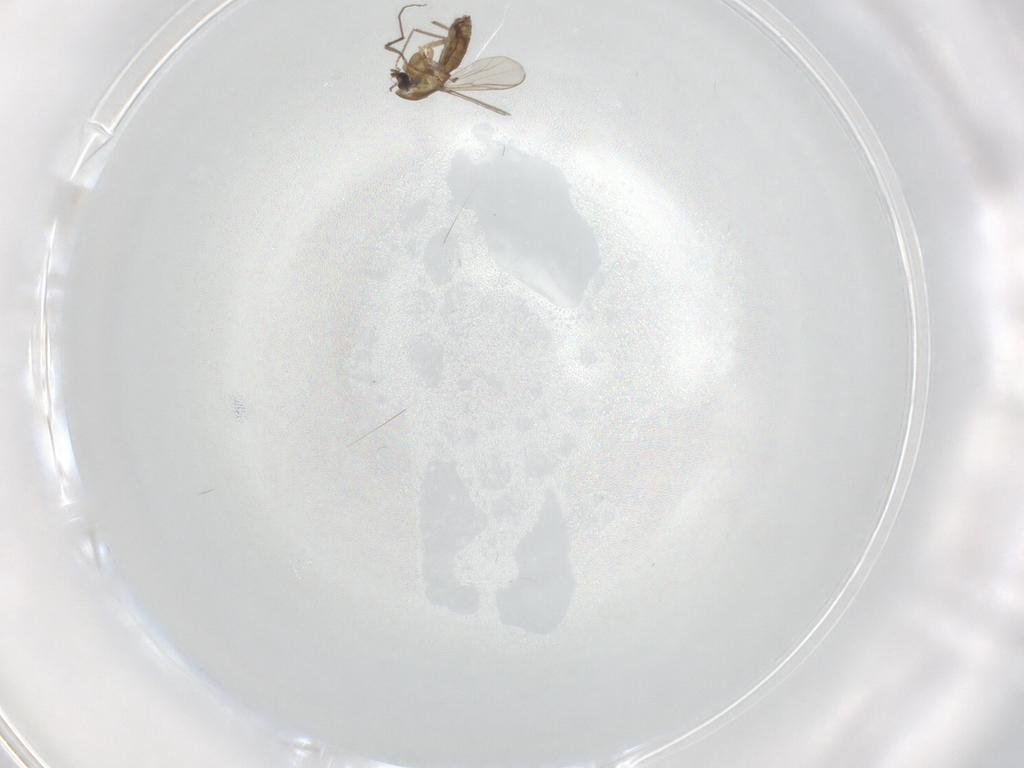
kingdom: Animalia
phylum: Arthropoda
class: Insecta
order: Diptera
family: Chironomidae
